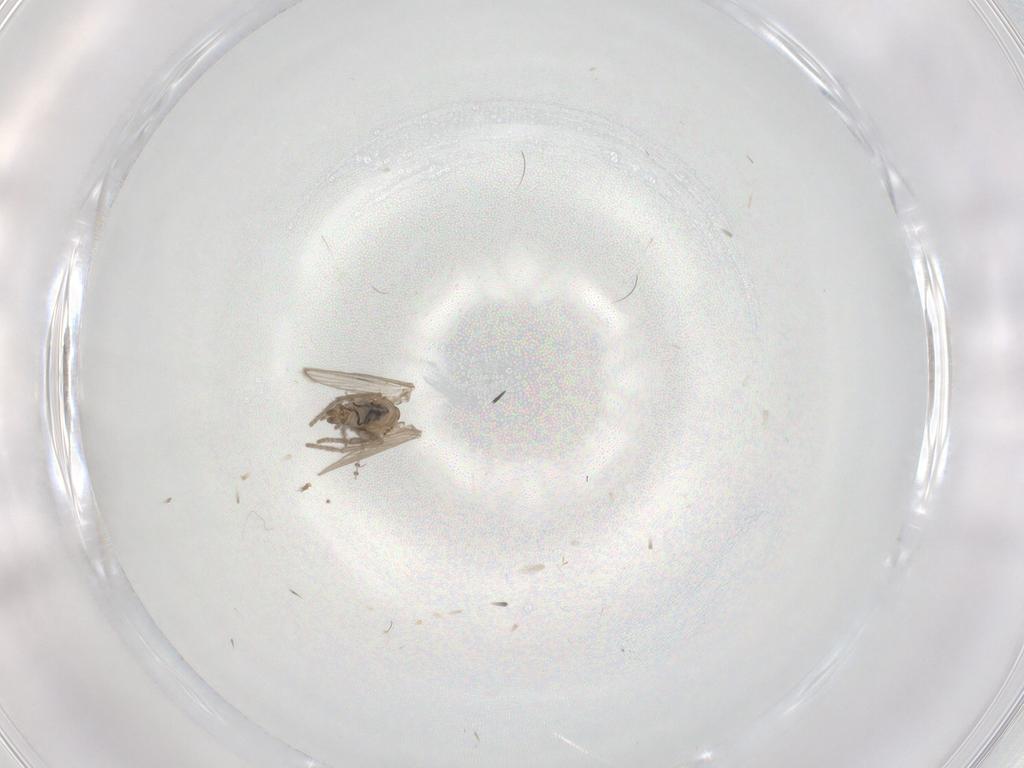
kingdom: Animalia
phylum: Arthropoda
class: Insecta
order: Diptera
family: Psychodidae
